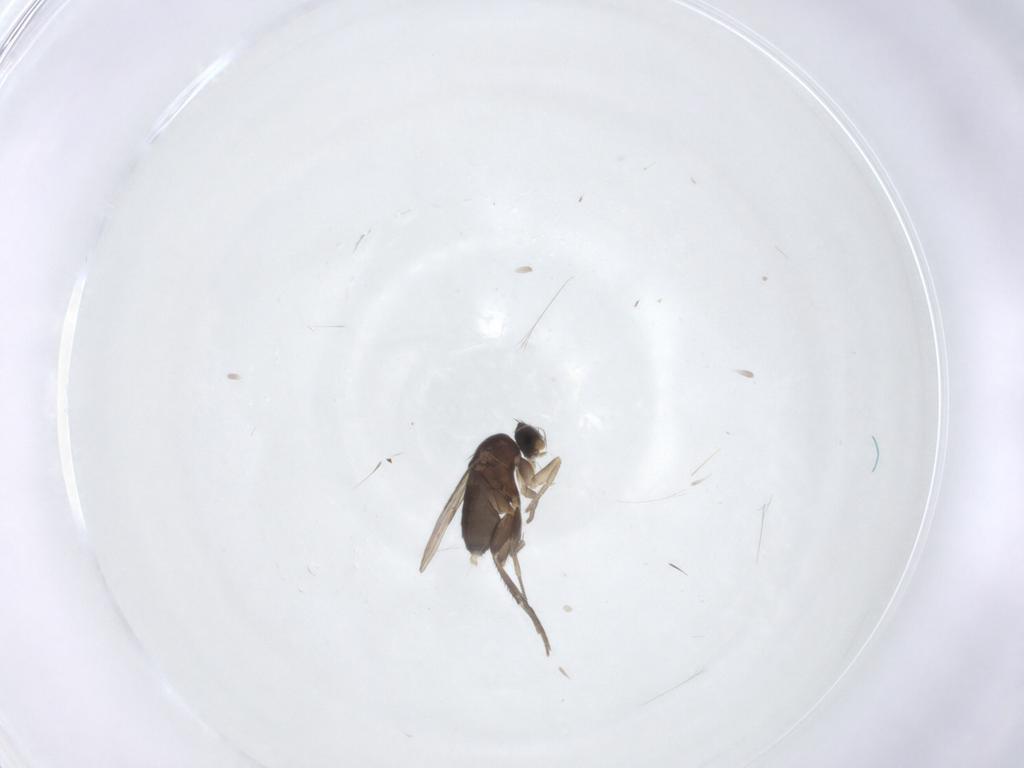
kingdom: Animalia
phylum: Arthropoda
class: Insecta
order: Diptera
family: Phoridae
